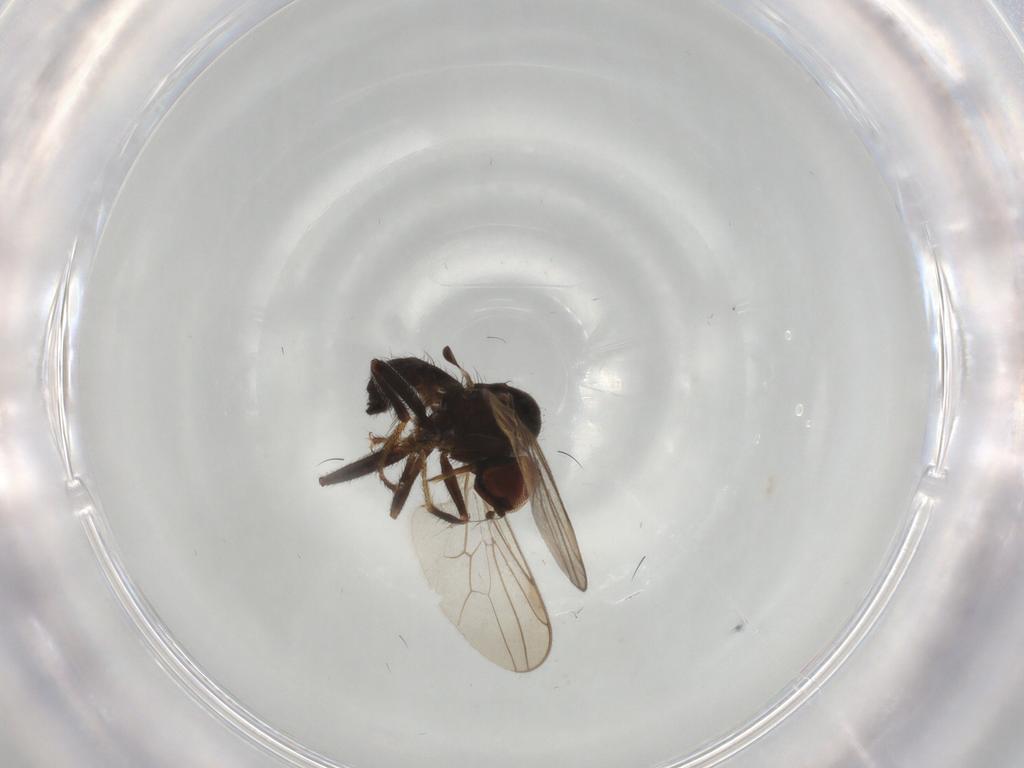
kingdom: Animalia
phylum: Arthropoda
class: Insecta
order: Diptera
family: Hybotidae
